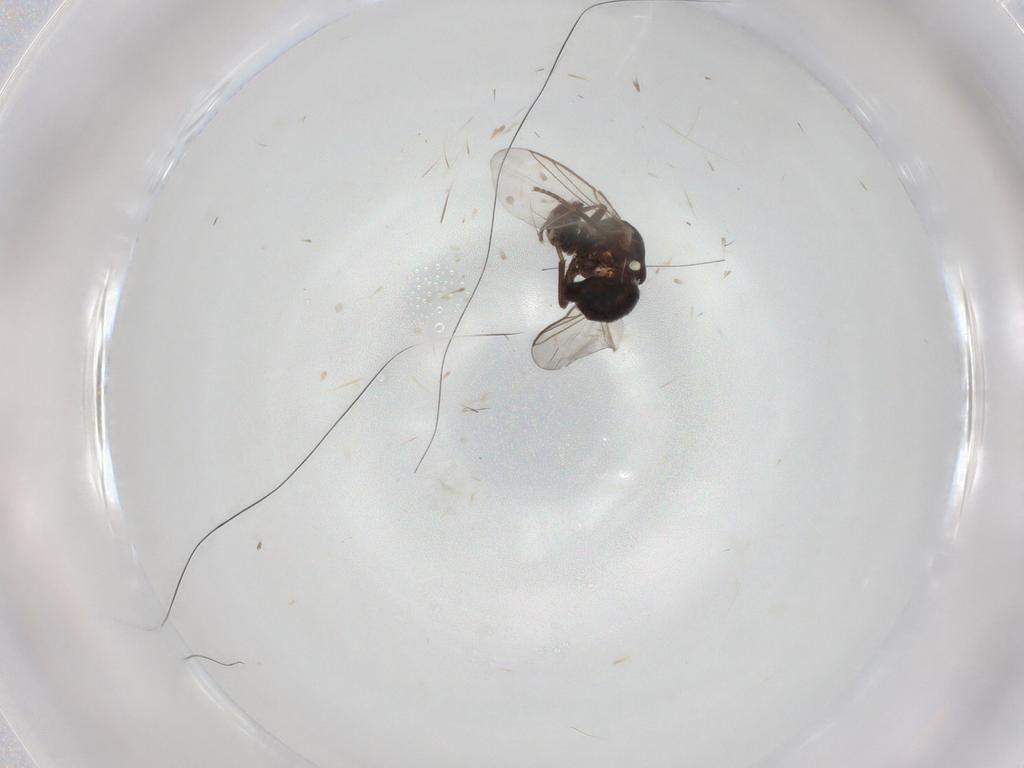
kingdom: Animalia
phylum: Arthropoda
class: Insecta
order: Diptera
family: Agromyzidae
